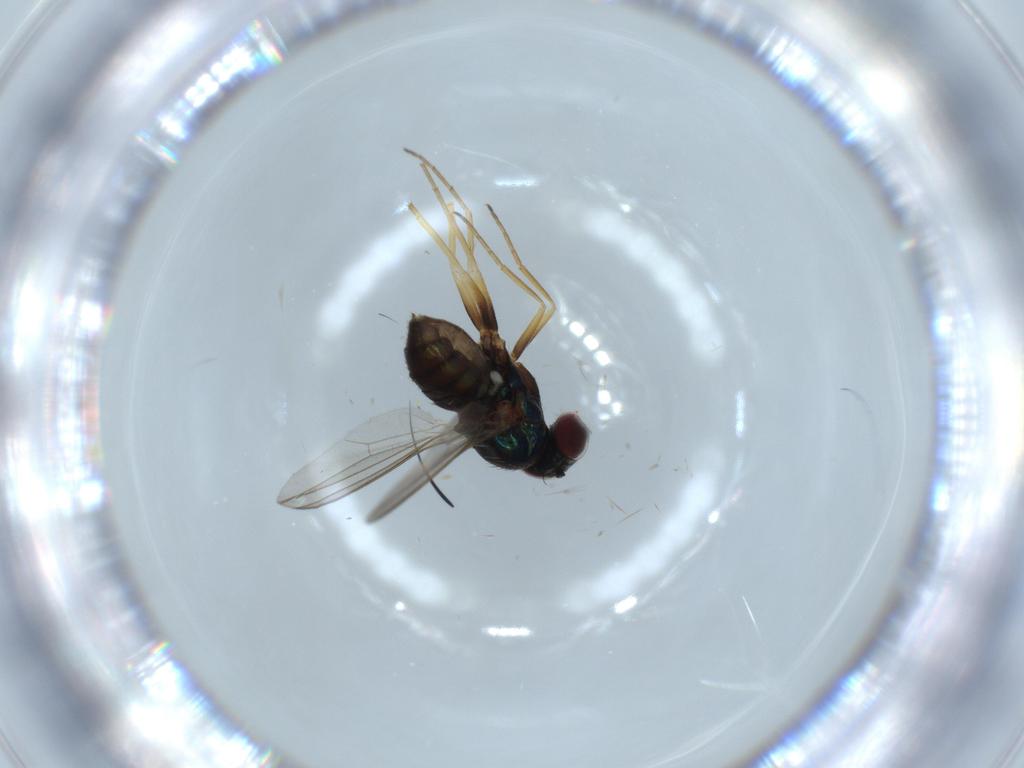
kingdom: Animalia
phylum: Arthropoda
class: Insecta
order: Diptera
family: Dolichopodidae
